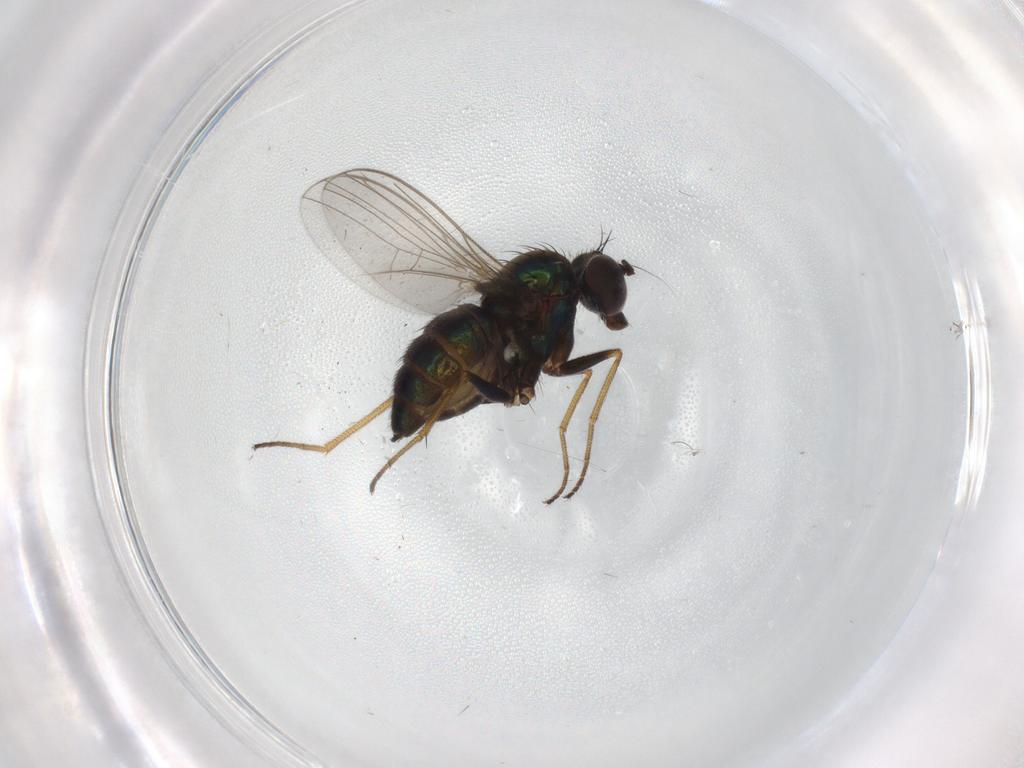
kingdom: Animalia
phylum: Arthropoda
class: Insecta
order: Diptera
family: Dolichopodidae
